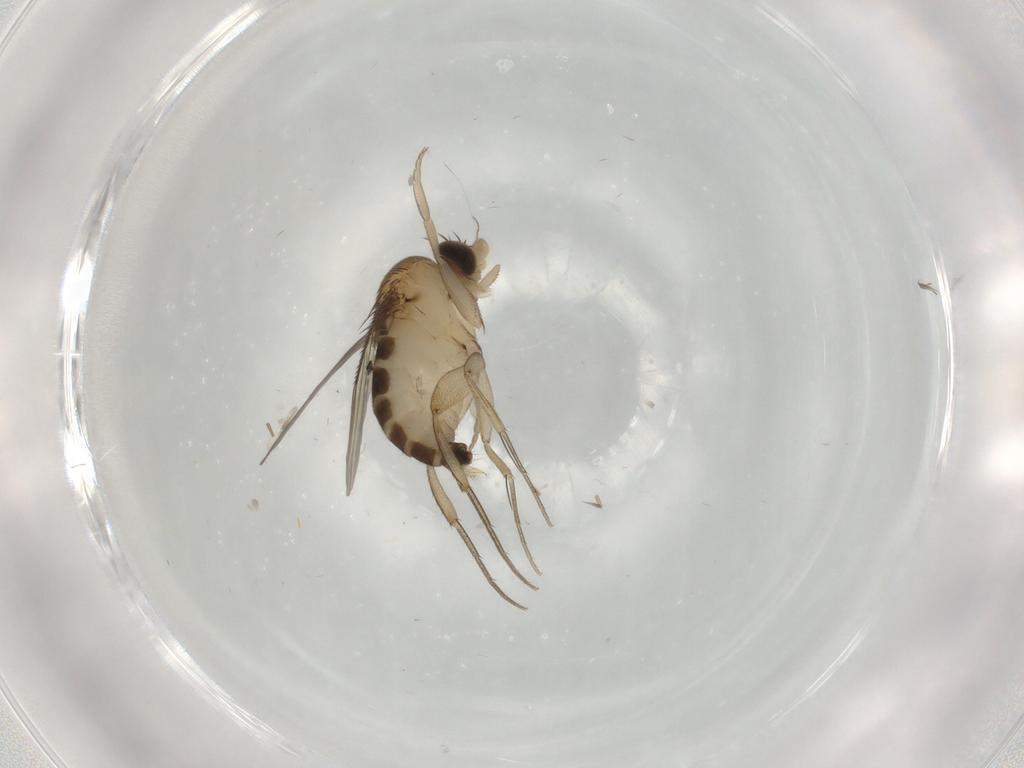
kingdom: Animalia
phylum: Arthropoda
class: Insecta
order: Diptera
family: Phoridae
